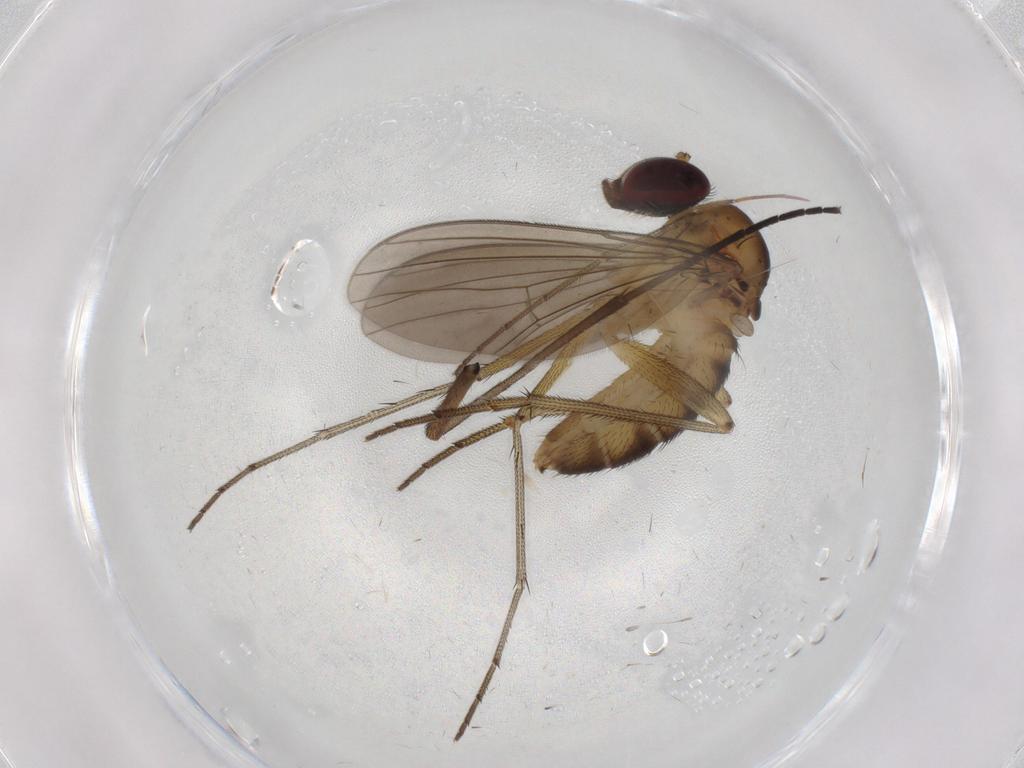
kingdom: Animalia
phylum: Arthropoda
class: Insecta
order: Diptera
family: Dolichopodidae
